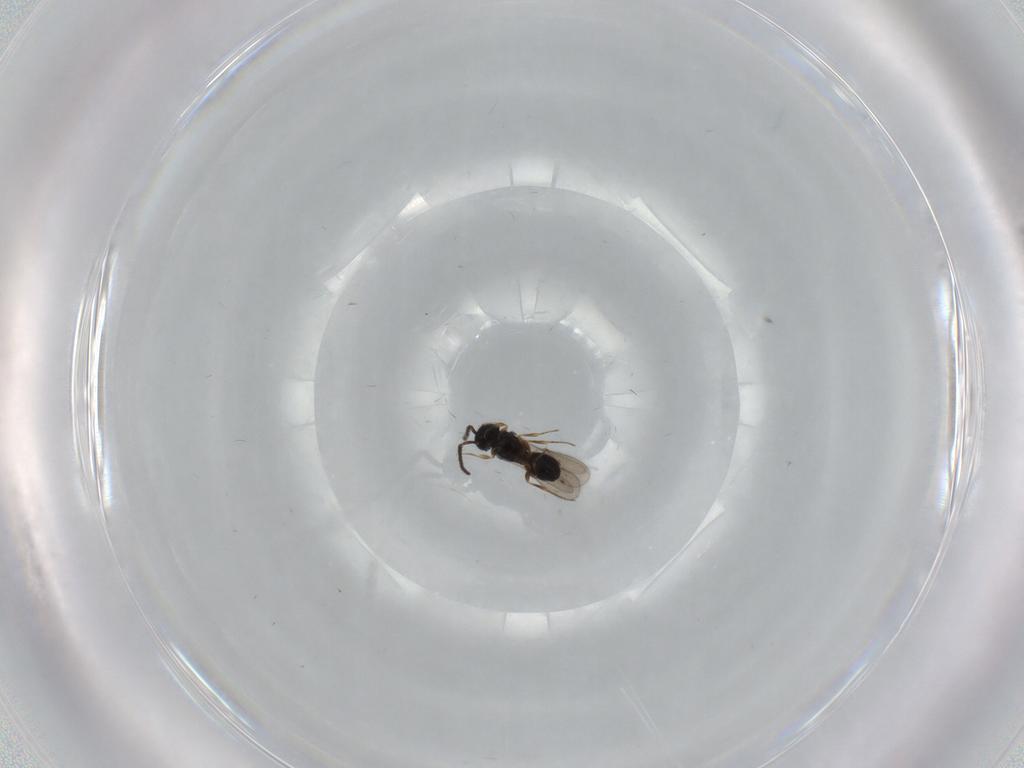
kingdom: Animalia
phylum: Arthropoda
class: Insecta
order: Hymenoptera
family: Scelionidae
